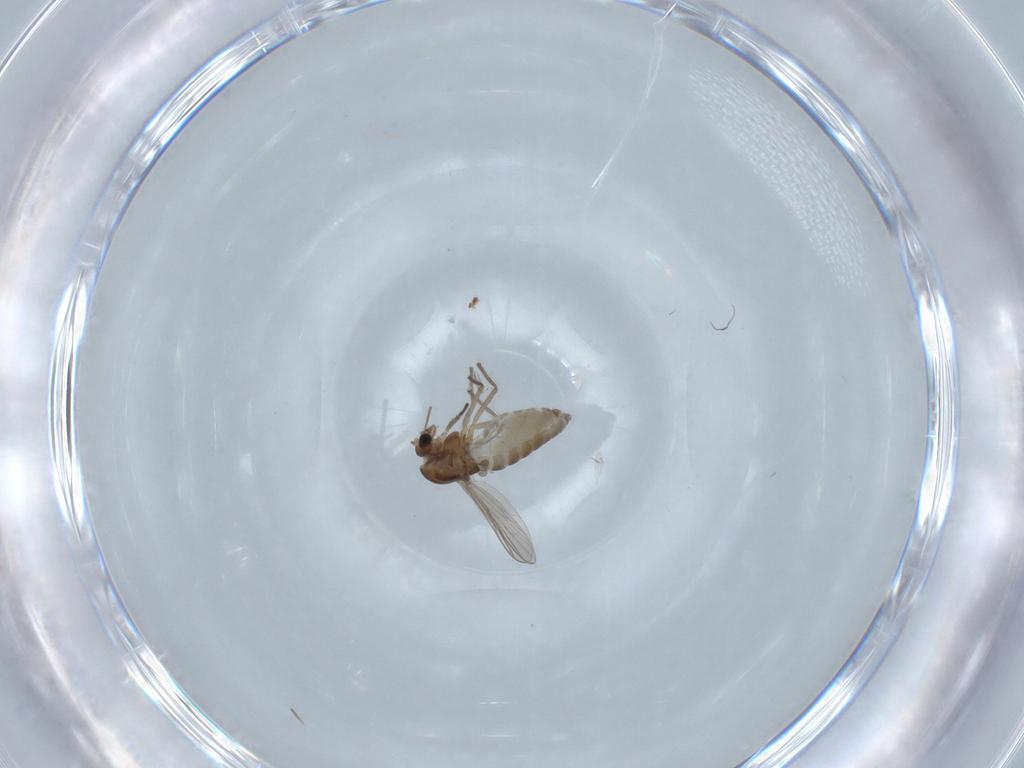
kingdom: Animalia
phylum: Arthropoda
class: Insecta
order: Diptera
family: Chironomidae
